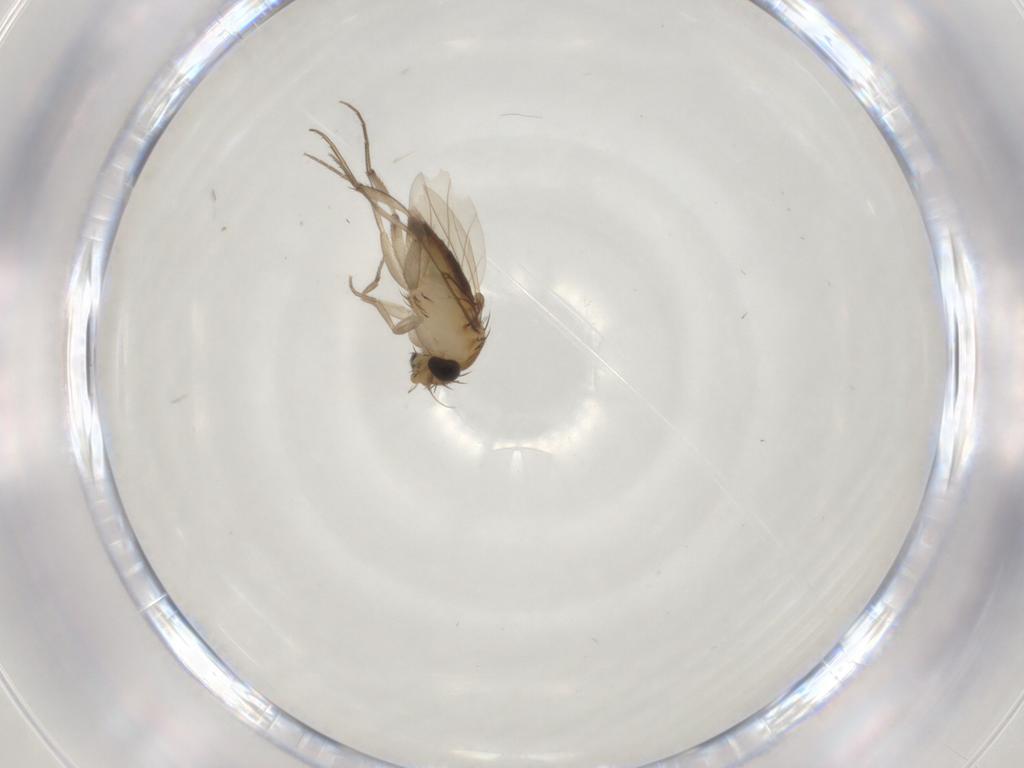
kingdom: Animalia
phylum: Arthropoda
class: Insecta
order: Diptera
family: Phoridae
